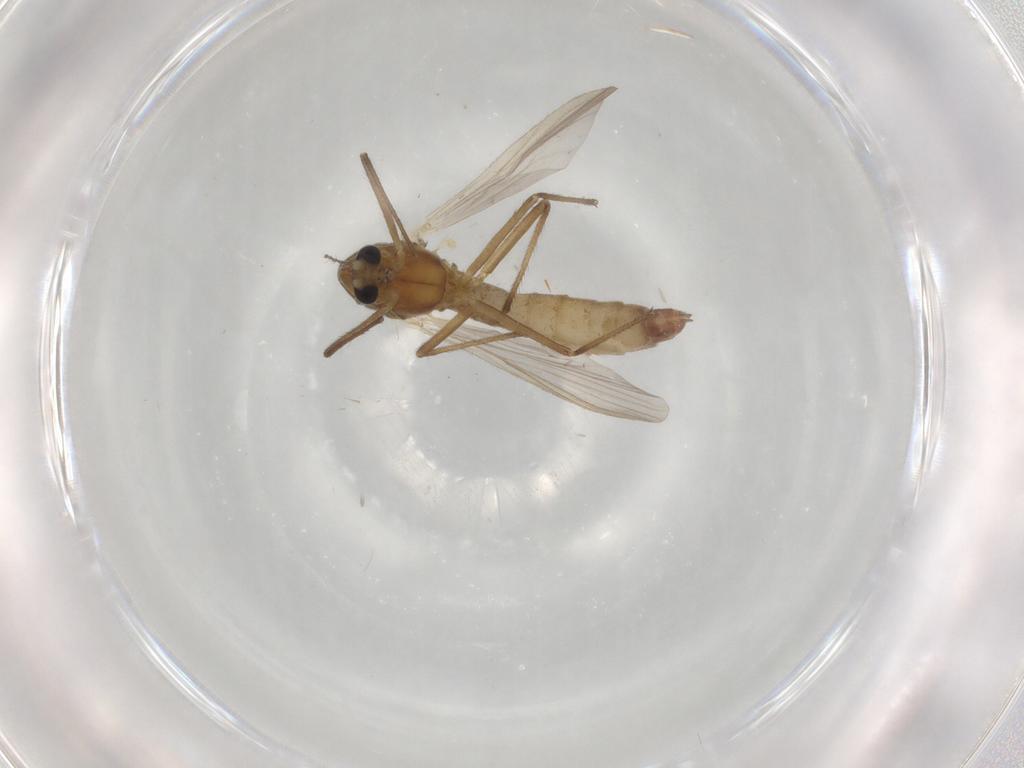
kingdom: Animalia
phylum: Arthropoda
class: Insecta
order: Diptera
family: Chironomidae
